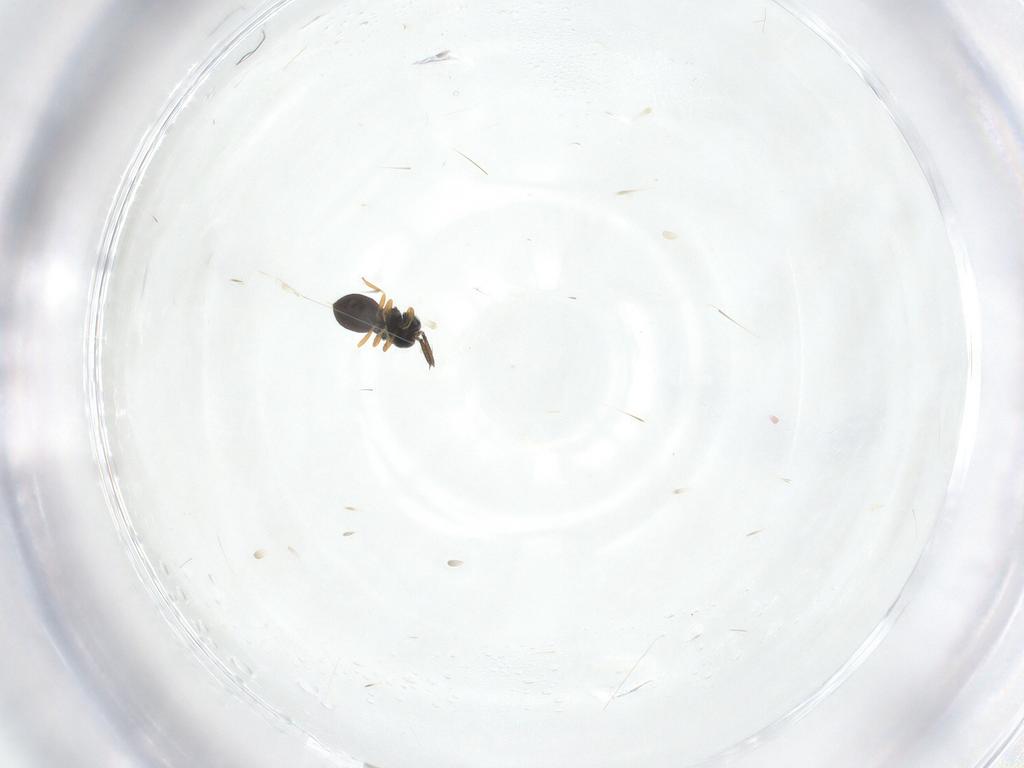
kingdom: Animalia
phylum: Arthropoda
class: Insecta
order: Hymenoptera
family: Scelionidae
